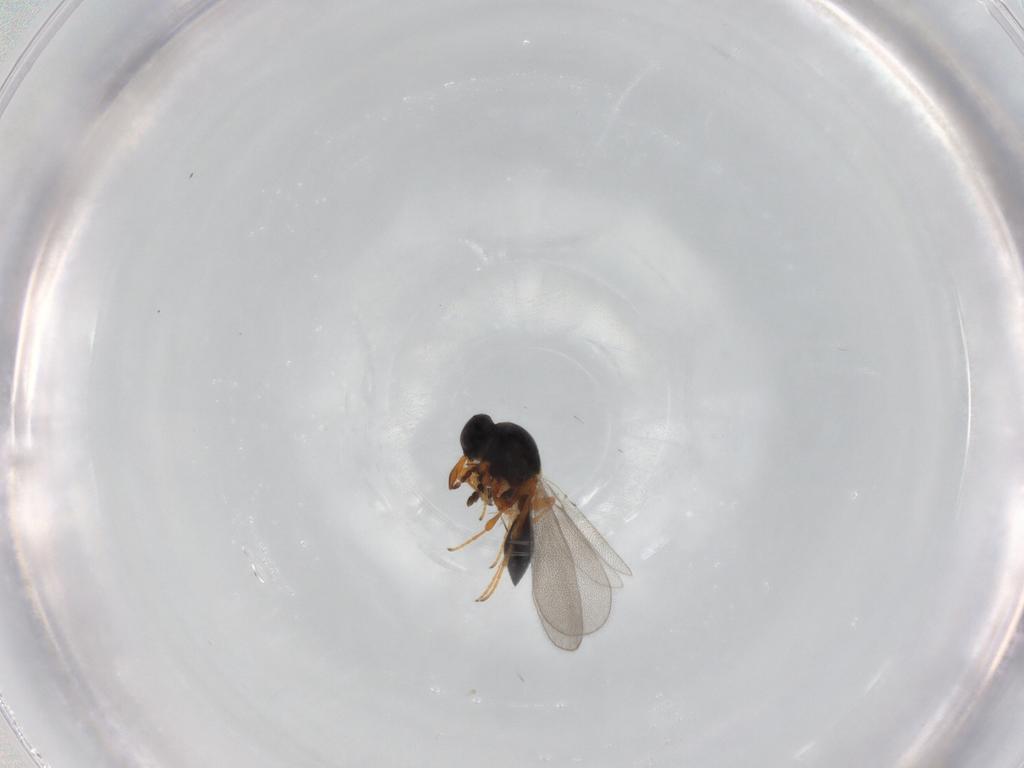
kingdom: Animalia
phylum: Arthropoda
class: Insecta
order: Hymenoptera
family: Platygastridae
